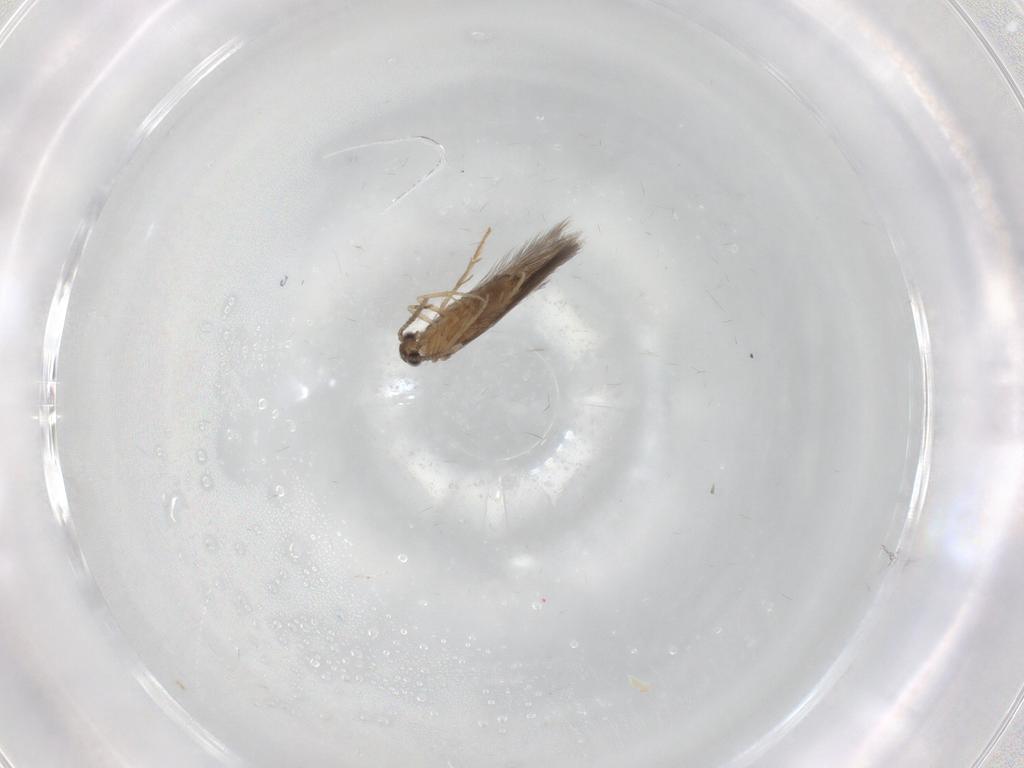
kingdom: Animalia
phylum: Arthropoda
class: Insecta
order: Trichoptera
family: Hydroptilidae
